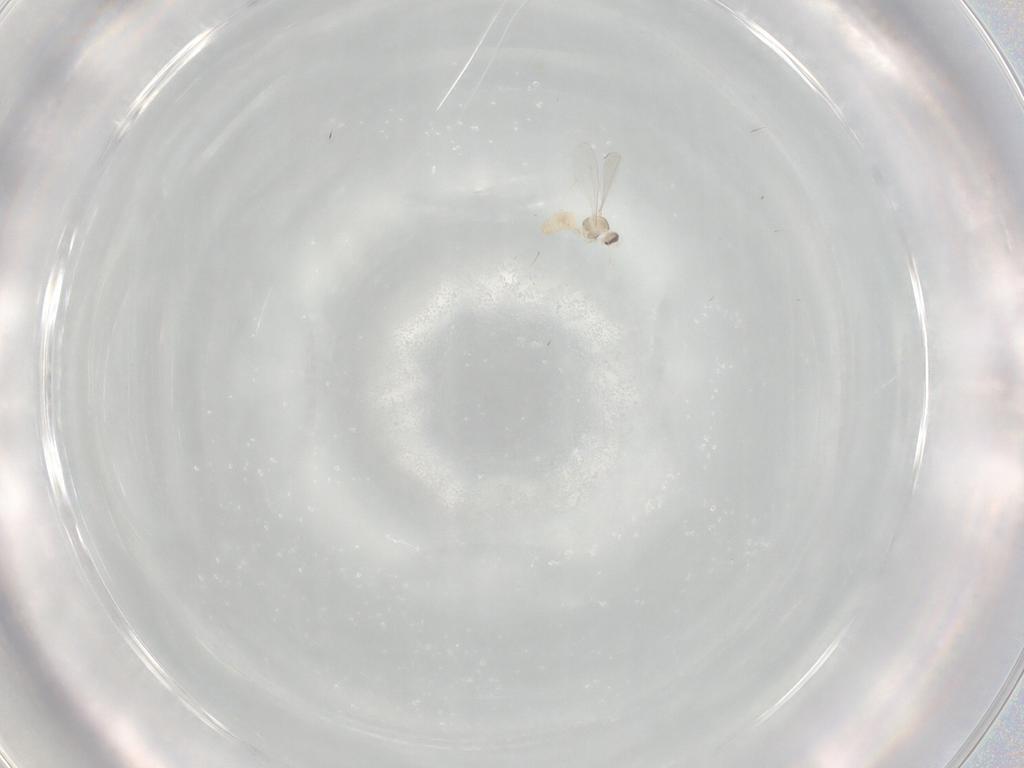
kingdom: Animalia
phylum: Arthropoda
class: Insecta
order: Diptera
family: Cecidomyiidae
